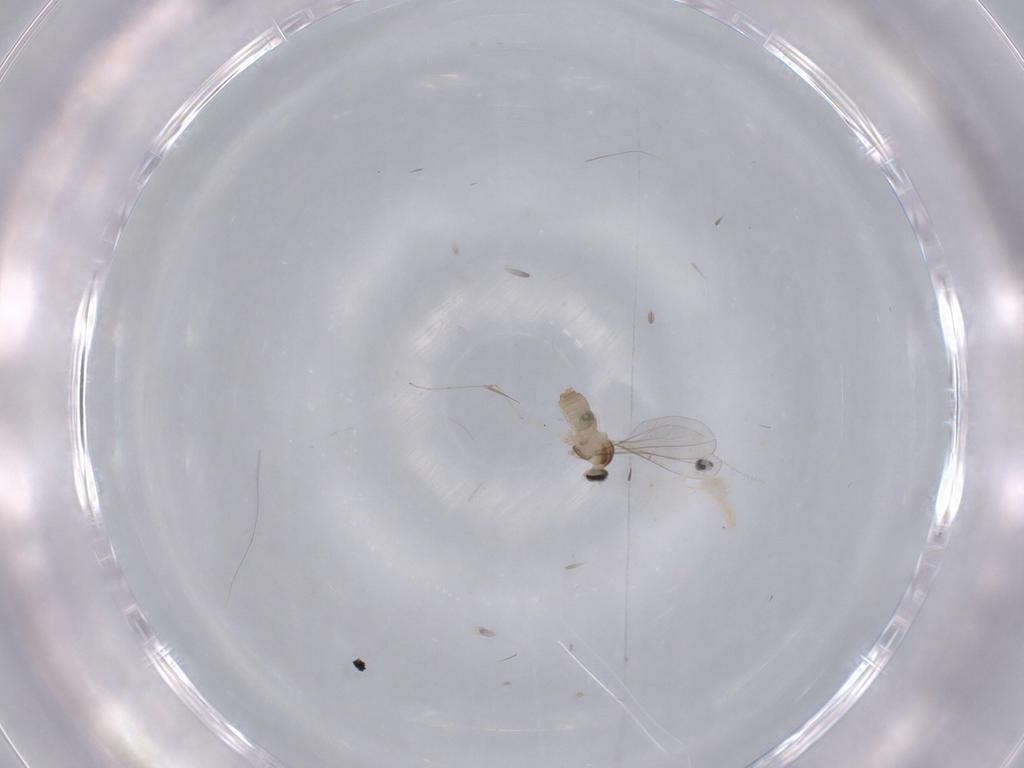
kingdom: Animalia
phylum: Arthropoda
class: Insecta
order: Diptera
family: Cecidomyiidae
